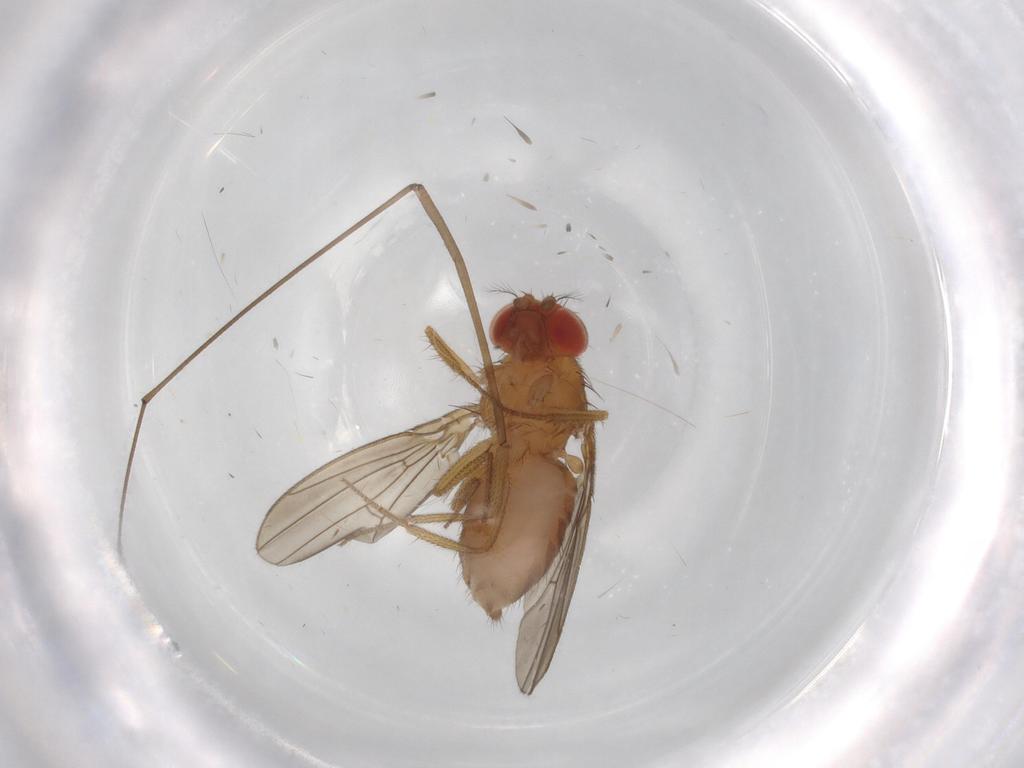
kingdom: Animalia
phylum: Arthropoda
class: Insecta
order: Diptera
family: Drosophilidae
